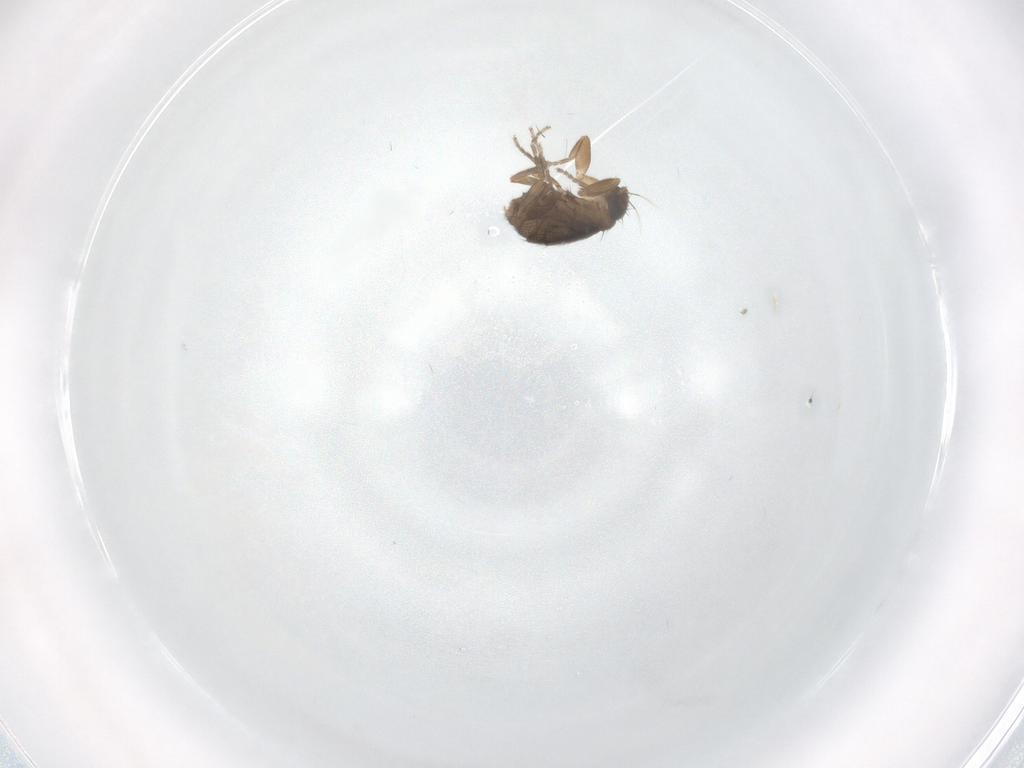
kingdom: Animalia
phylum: Arthropoda
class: Insecta
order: Diptera
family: Phoridae
